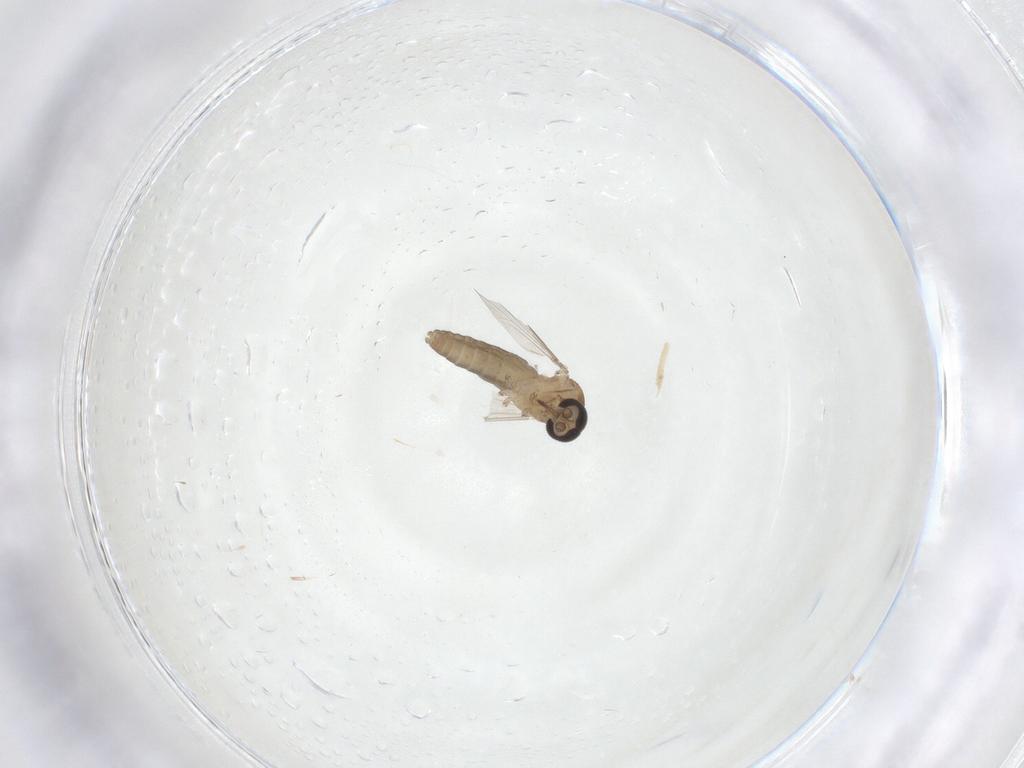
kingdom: Animalia
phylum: Arthropoda
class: Insecta
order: Diptera
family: Ceratopogonidae
